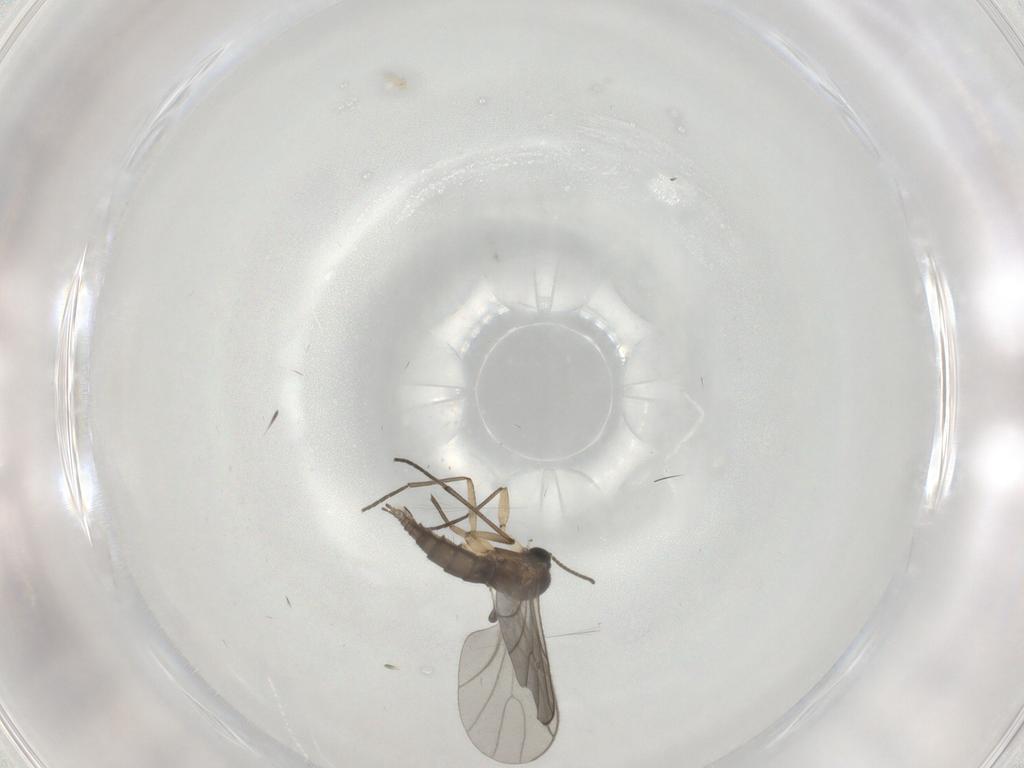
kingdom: Animalia
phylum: Arthropoda
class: Insecta
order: Diptera
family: Sciaridae
